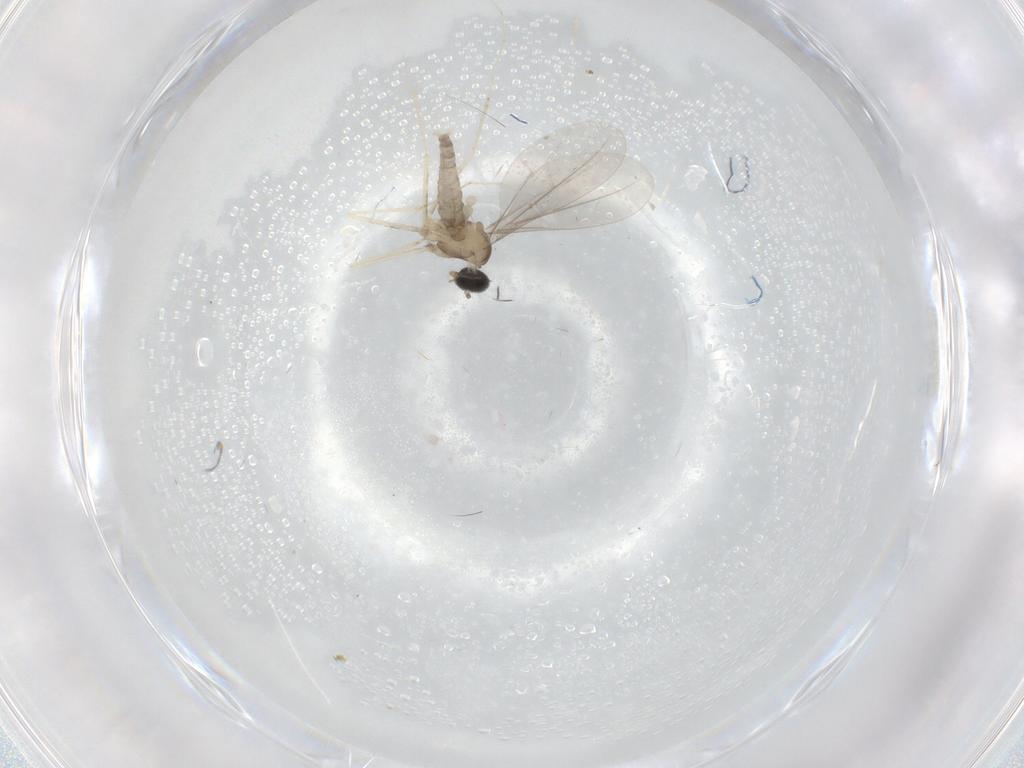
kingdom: Animalia
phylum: Arthropoda
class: Insecta
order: Diptera
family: Cecidomyiidae
